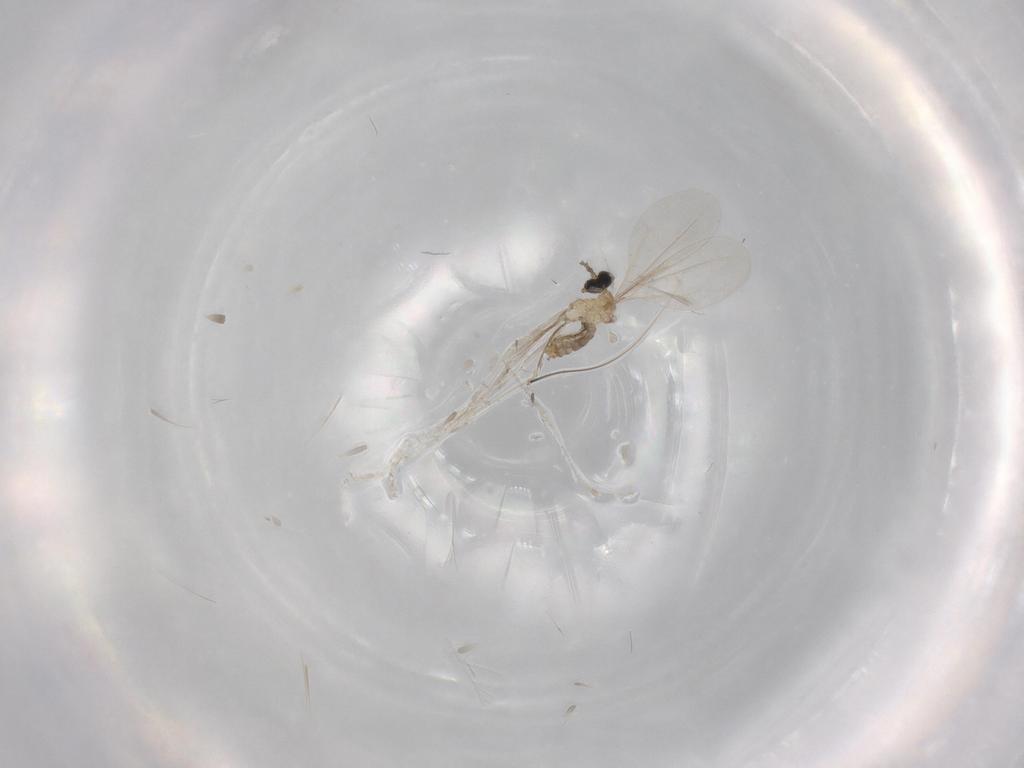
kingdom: Animalia
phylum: Arthropoda
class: Insecta
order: Diptera
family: Cecidomyiidae
